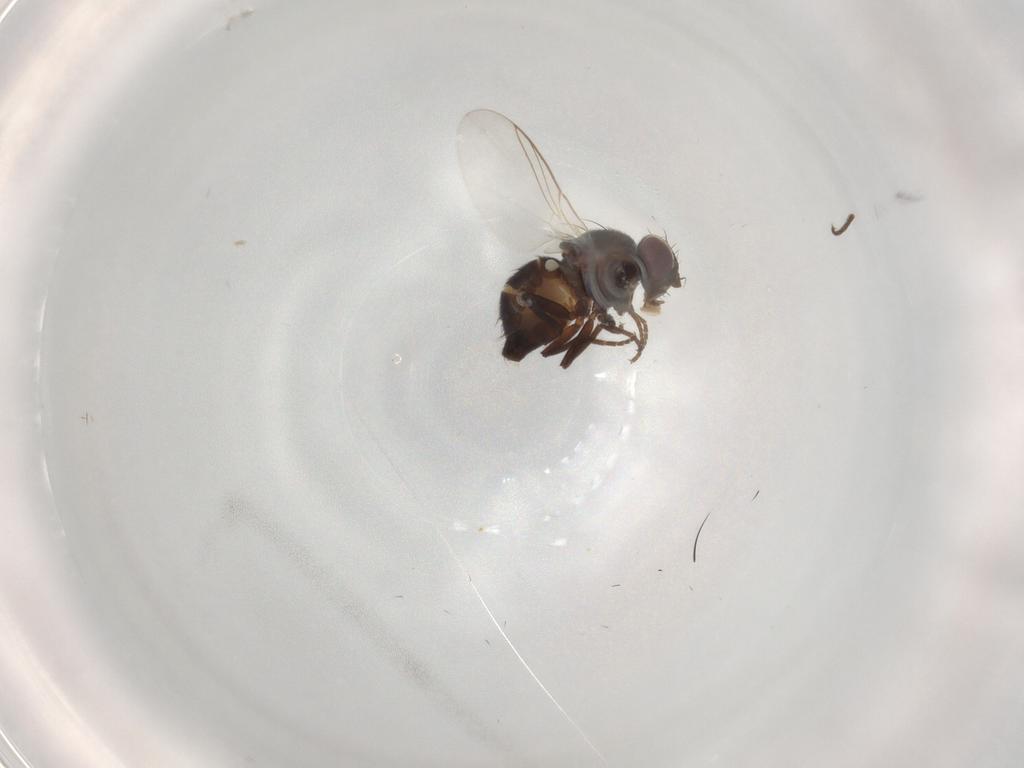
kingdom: Animalia
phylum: Arthropoda
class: Insecta
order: Diptera
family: Agromyzidae
